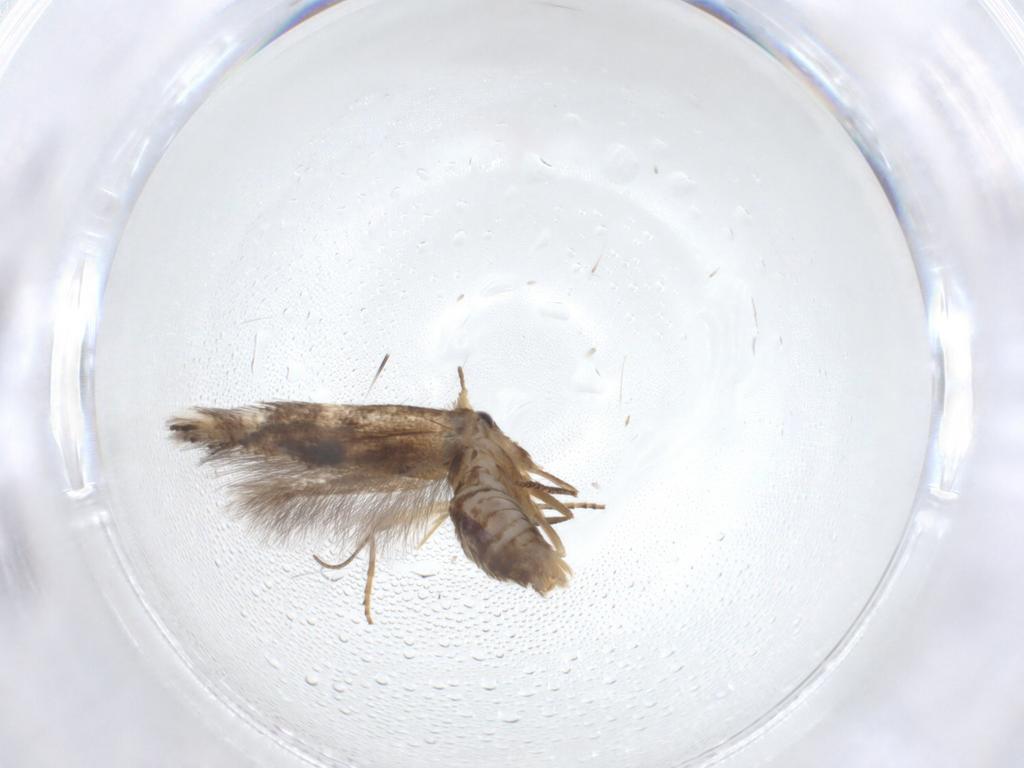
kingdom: Animalia
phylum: Arthropoda
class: Insecta
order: Lepidoptera
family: Bucculatricidae
